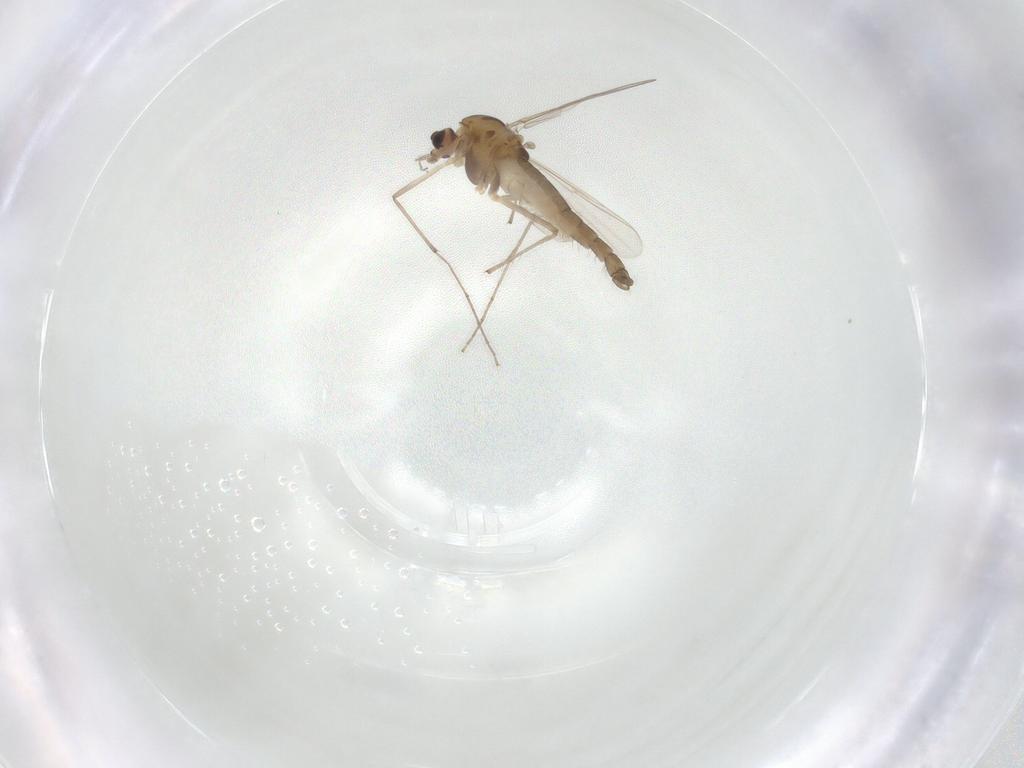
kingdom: Animalia
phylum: Arthropoda
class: Insecta
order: Diptera
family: Chironomidae
